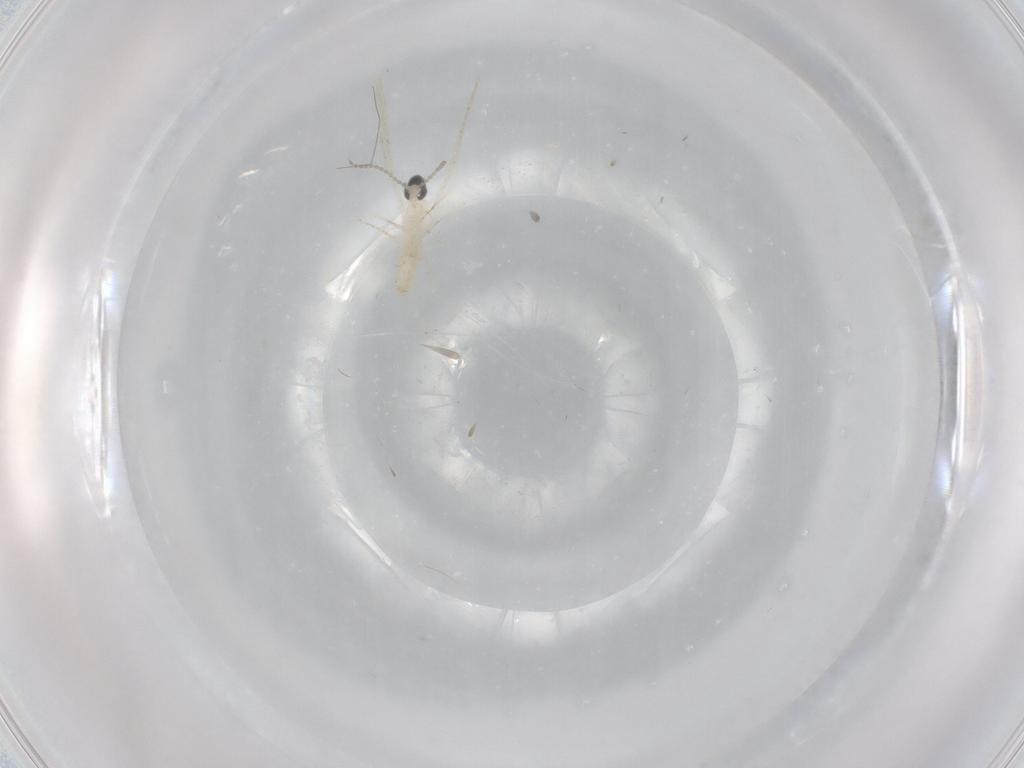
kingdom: Animalia
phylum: Arthropoda
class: Insecta
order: Diptera
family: Cecidomyiidae
